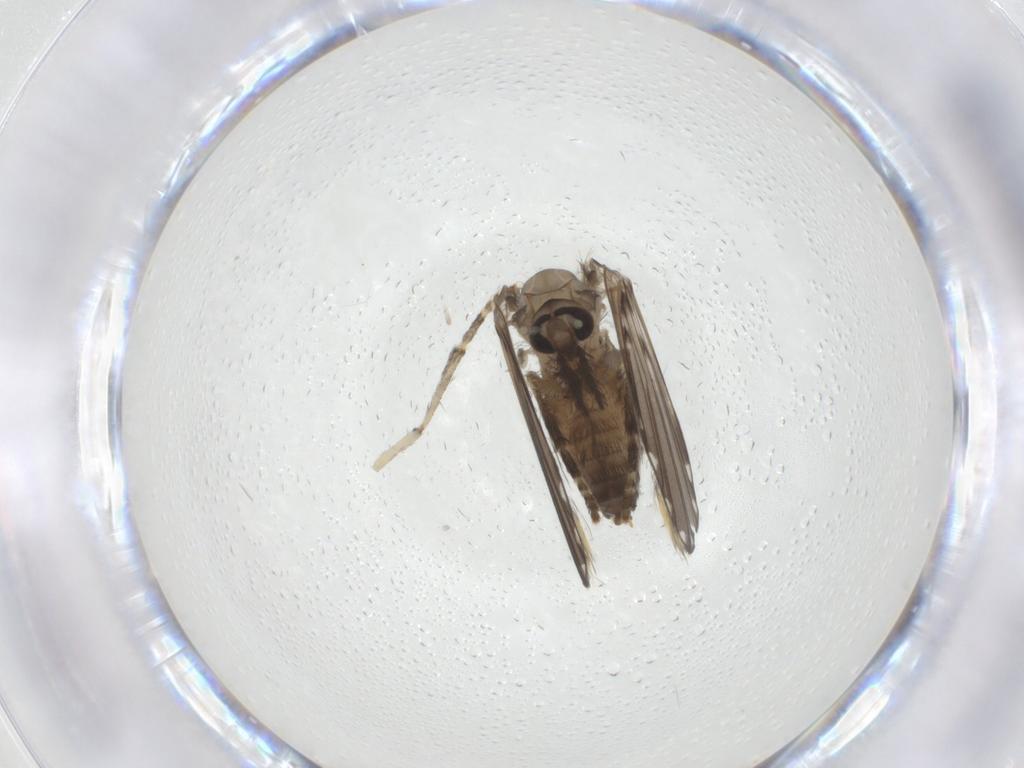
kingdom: Animalia
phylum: Arthropoda
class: Insecta
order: Diptera
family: Psychodidae
